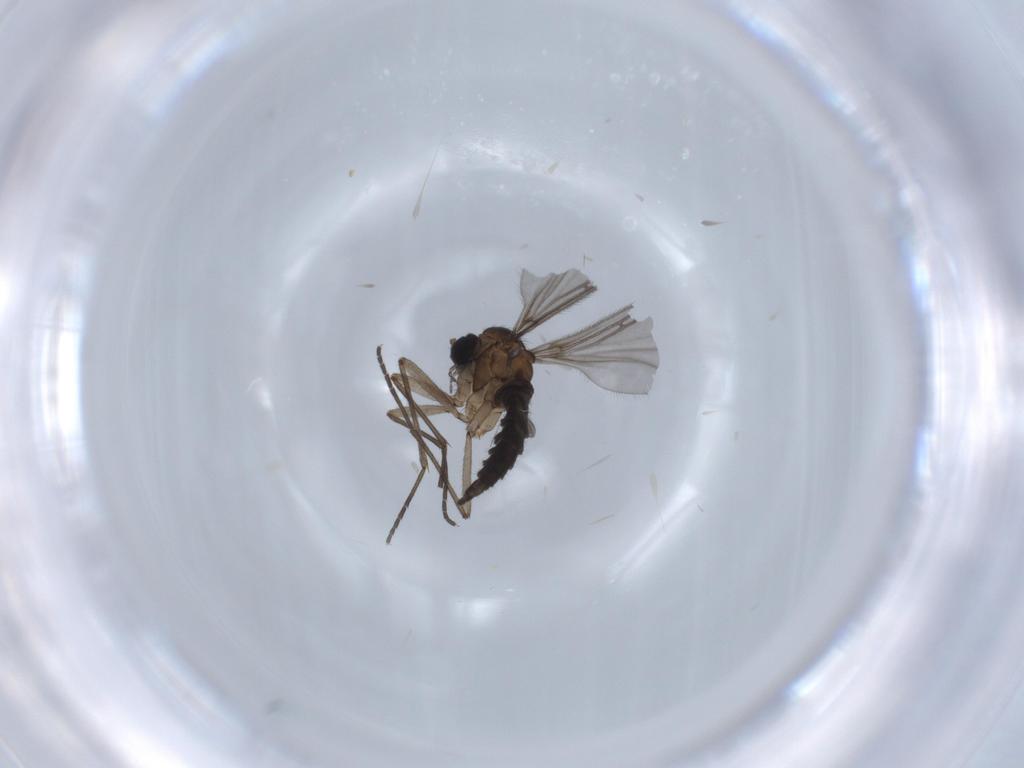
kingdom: Animalia
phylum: Arthropoda
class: Insecta
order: Diptera
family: Sciaridae
